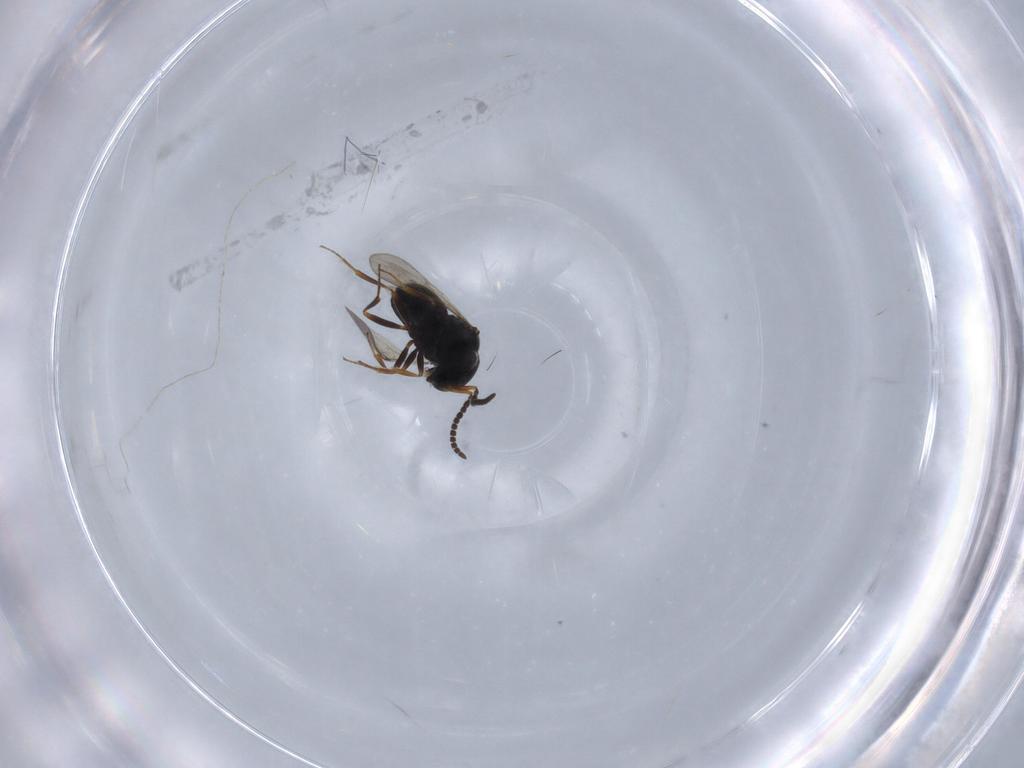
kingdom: Animalia
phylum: Arthropoda
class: Insecta
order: Hymenoptera
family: Scelionidae
